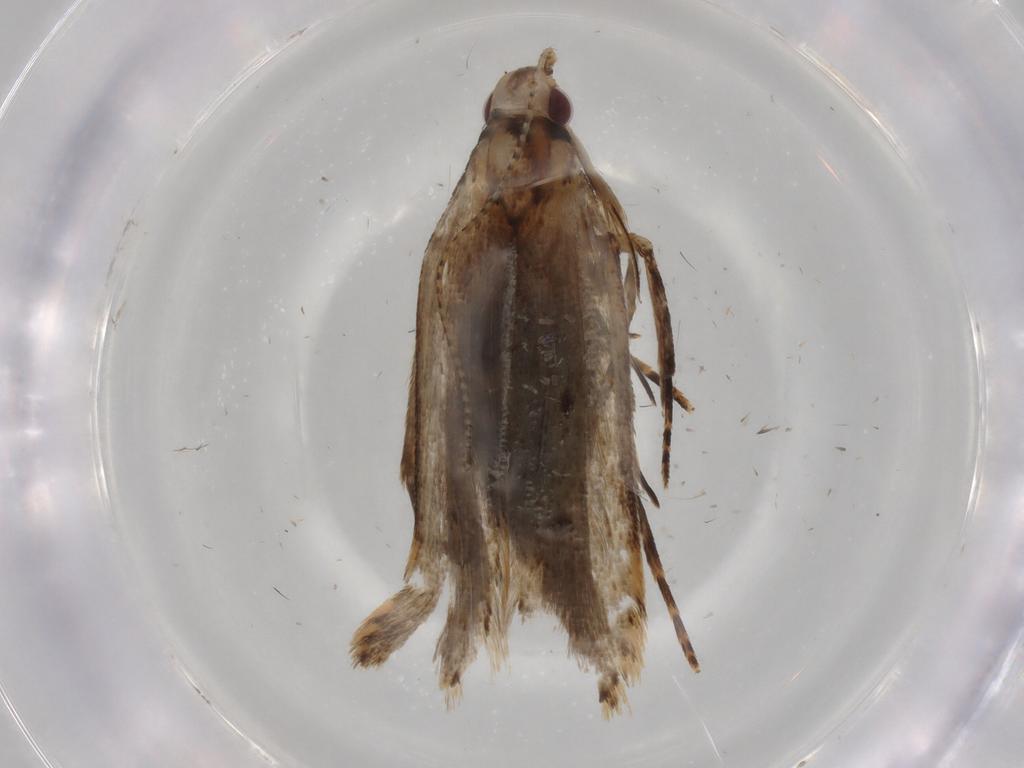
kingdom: Animalia
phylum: Arthropoda
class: Insecta
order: Lepidoptera
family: Gelechiidae
